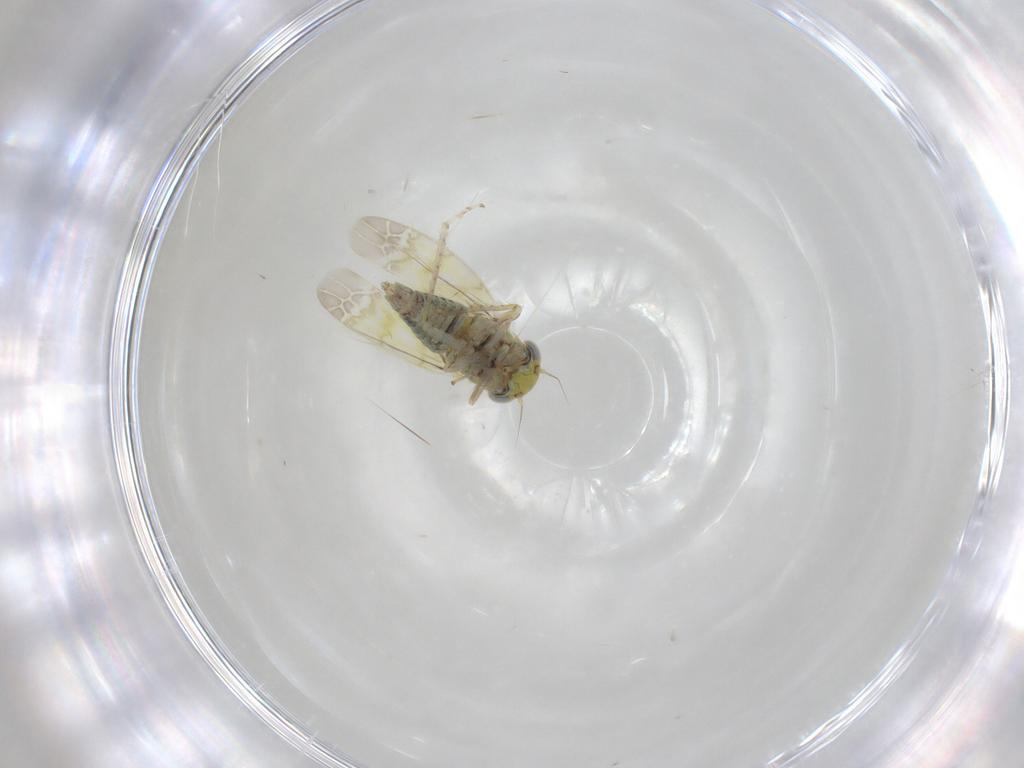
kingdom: Animalia
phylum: Arthropoda
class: Insecta
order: Hemiptera
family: Cicadellidae
